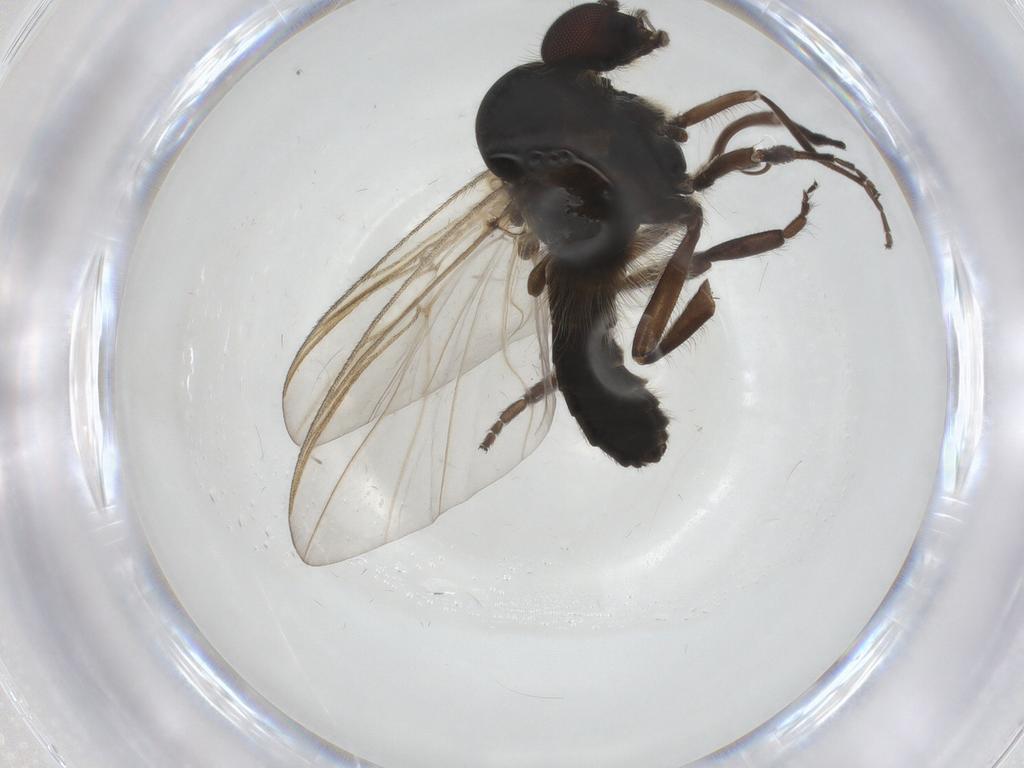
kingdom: Animalia
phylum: Arthropoda
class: Insecta
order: Diptera
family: Simuliidae
